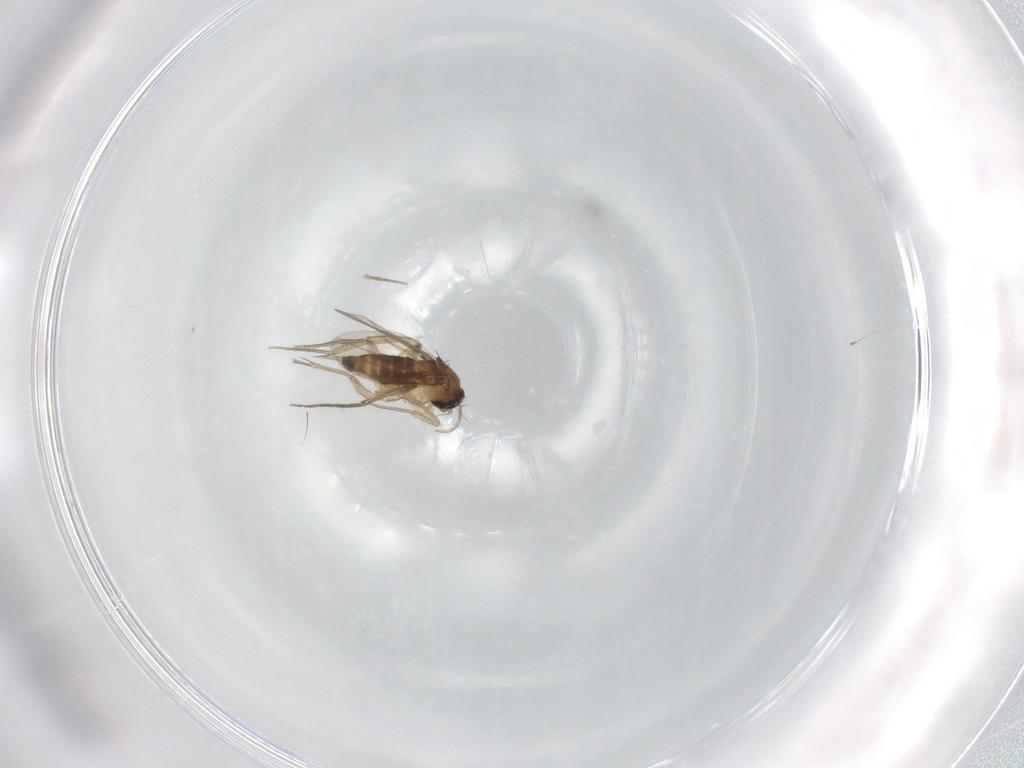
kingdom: Animalia
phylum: Arthropoda
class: Insecta
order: Diptera
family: Phoridae
